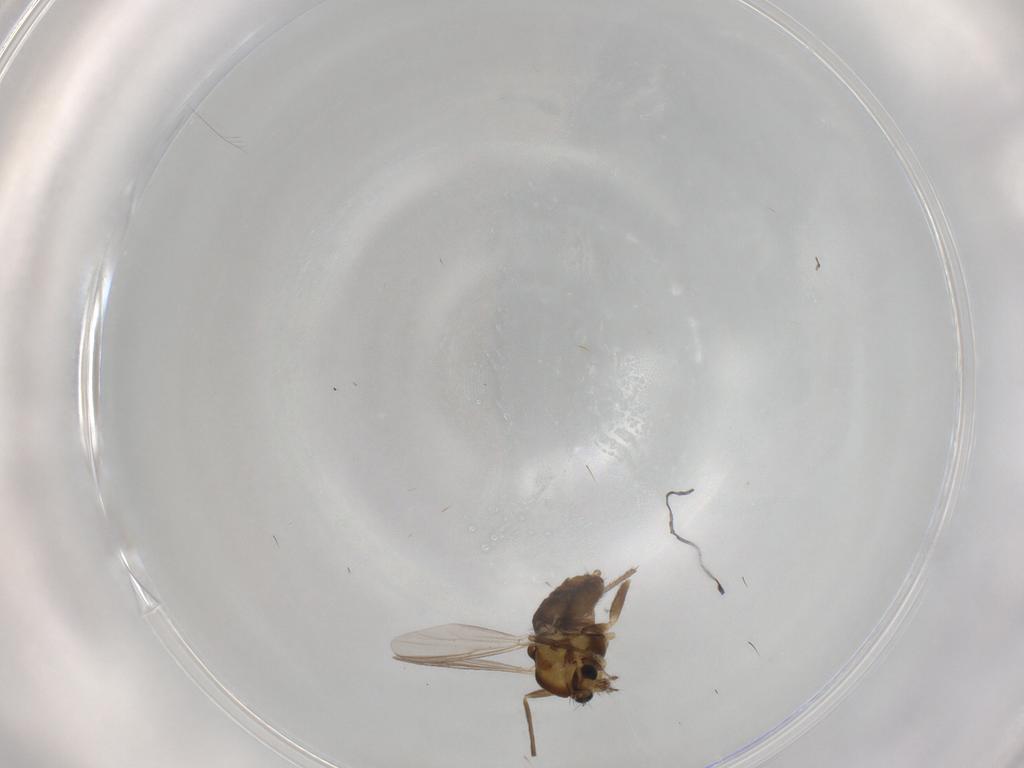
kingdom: Animalia
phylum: Arthropoda
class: Insecta
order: Diptera
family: Chironomidae
